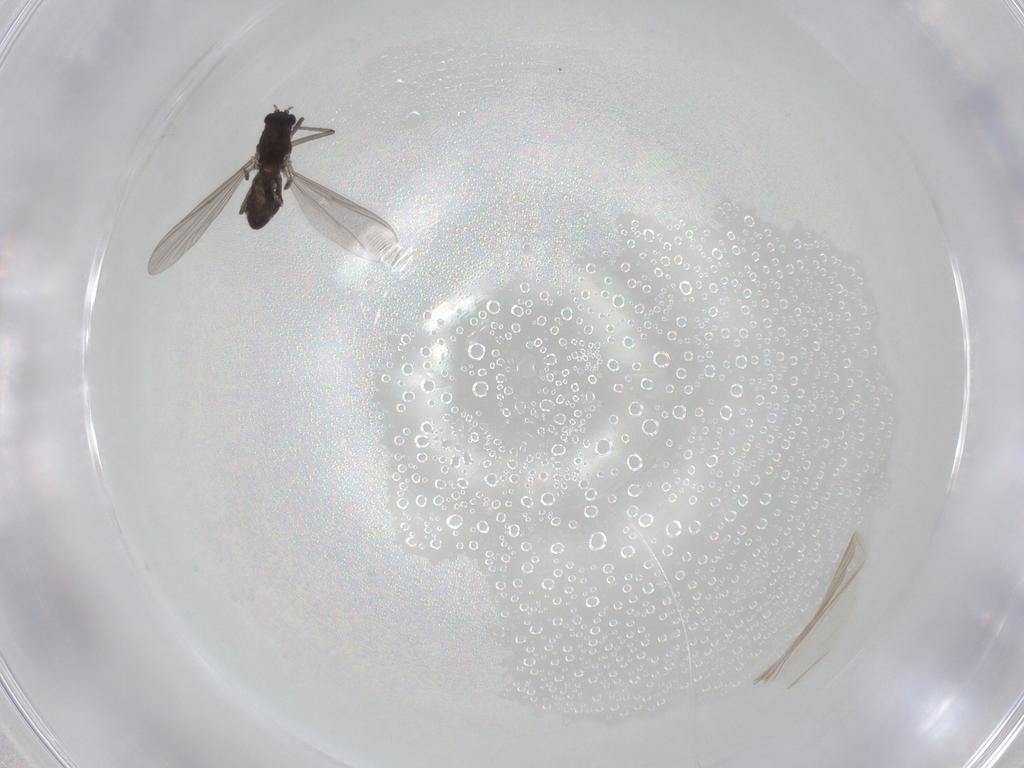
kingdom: Animalia
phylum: Arthropoda
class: Insecta
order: Diptera
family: Chironomidae
